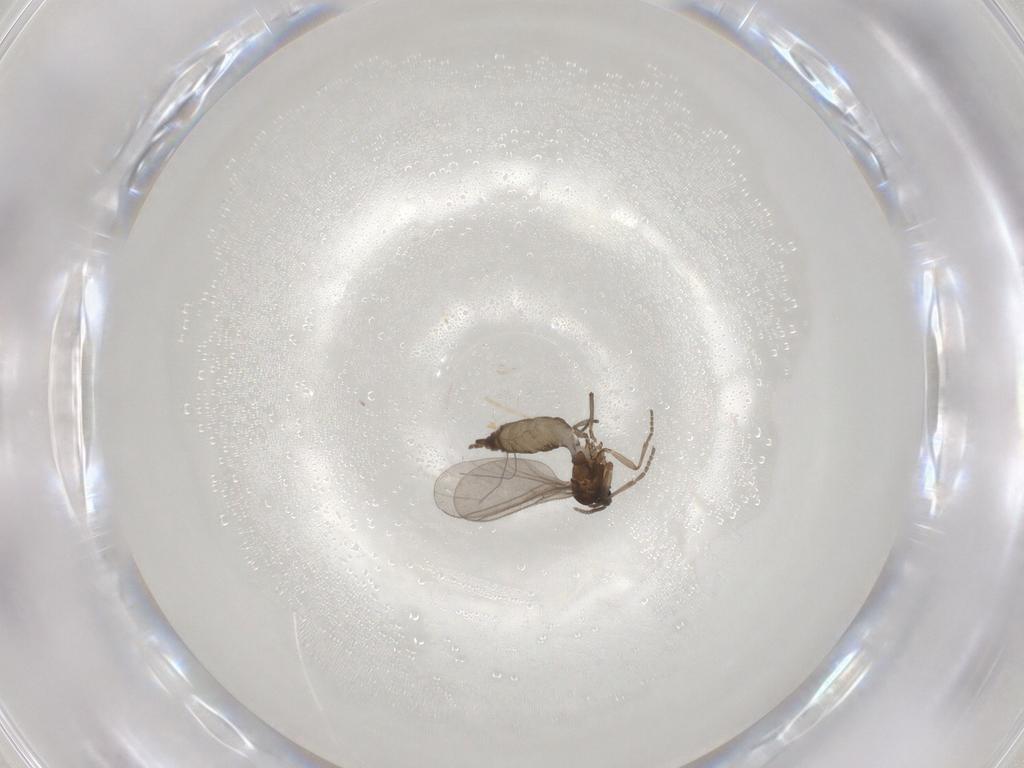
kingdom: Animalia
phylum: Arthropoda
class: Insecta
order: Diptera
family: Sciaridae
